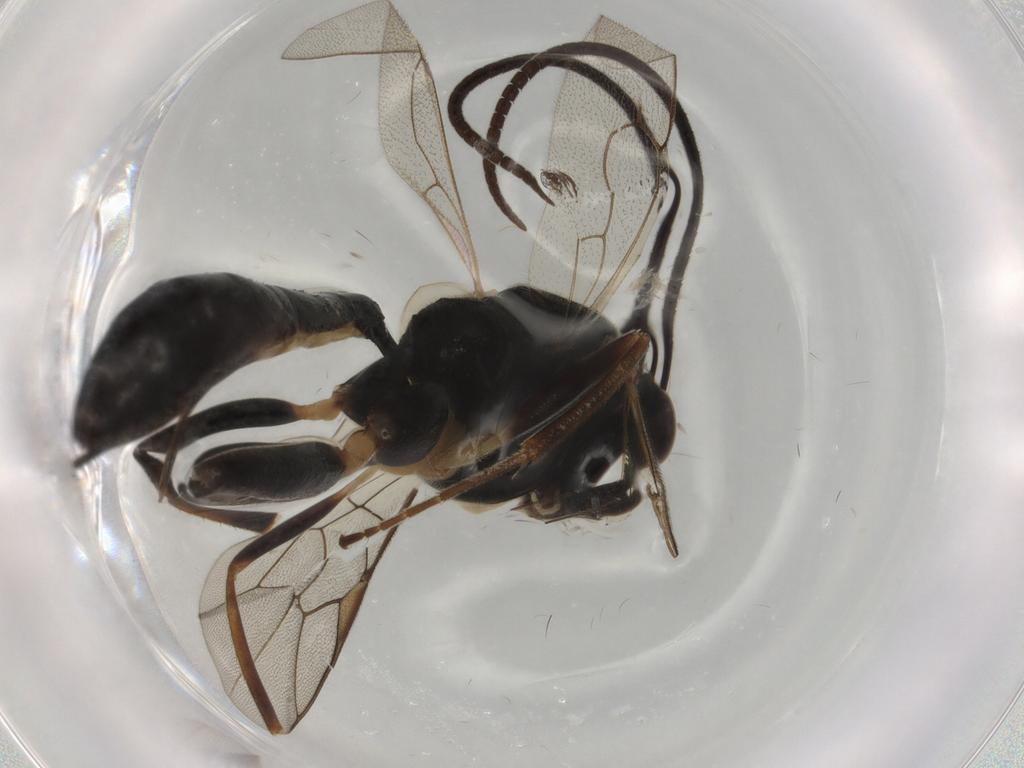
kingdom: Animalia
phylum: Arthropoda
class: Insecta
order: Hymenoptera
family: Ichneumonidae
